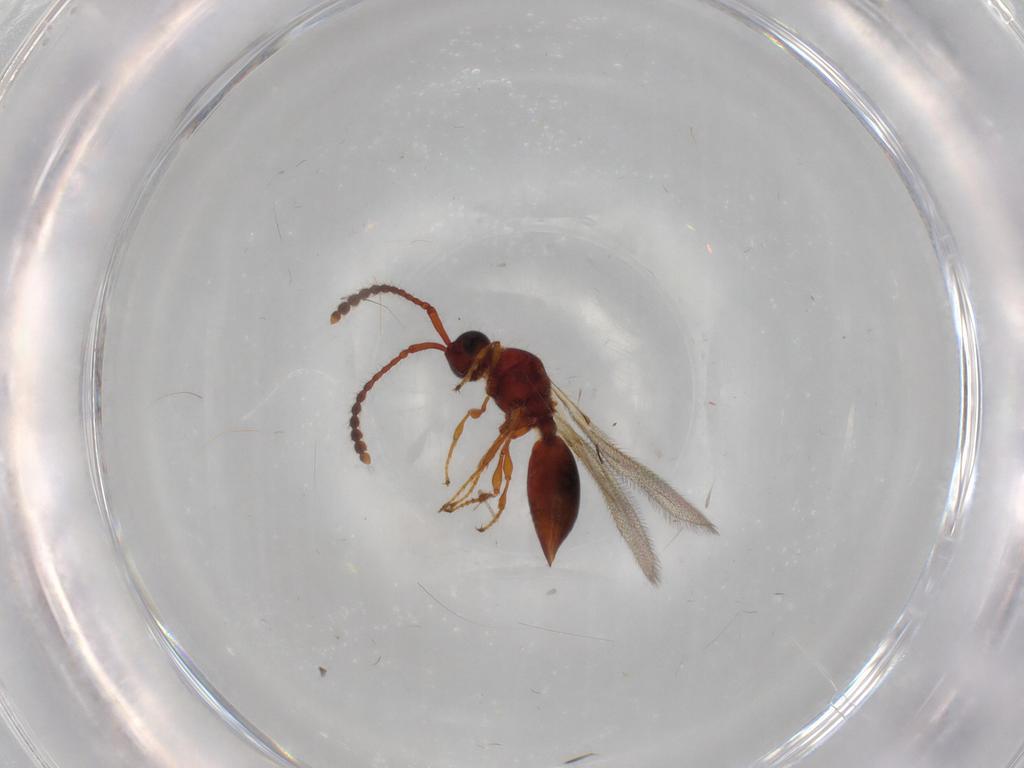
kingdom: Animalia
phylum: Arthropoda
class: Insecta
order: Hymenoptera
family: Diapriidae
